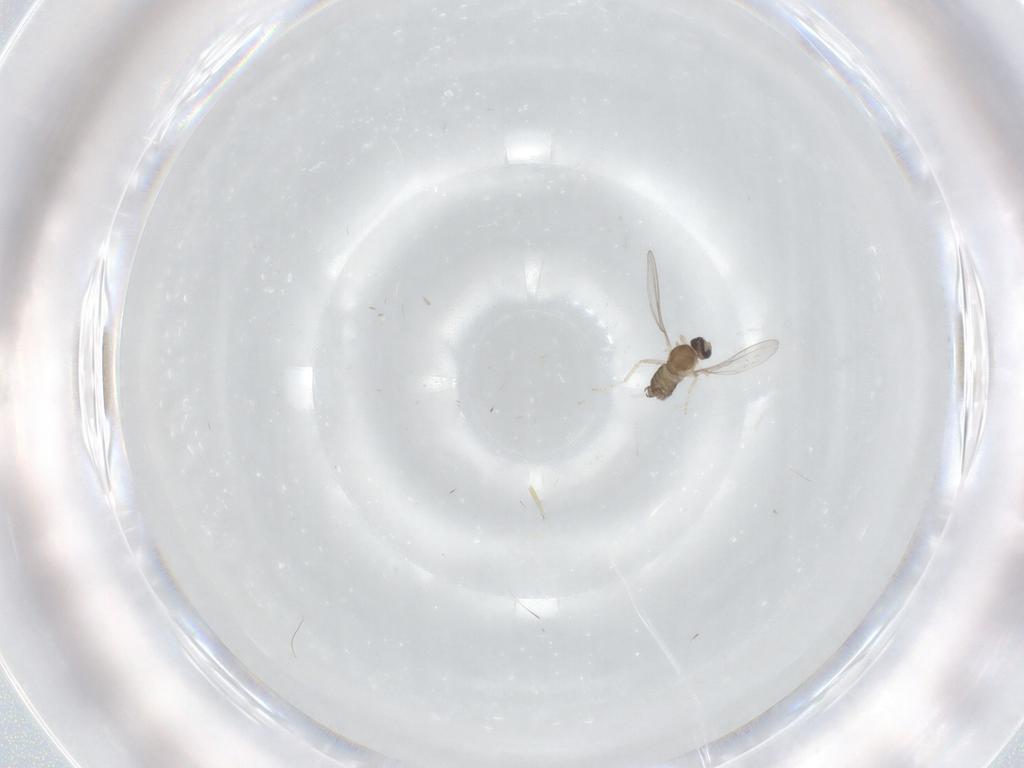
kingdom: Animalia
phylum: Arthropoda
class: Insecta
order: Diptera
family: Cecidomyiidae
